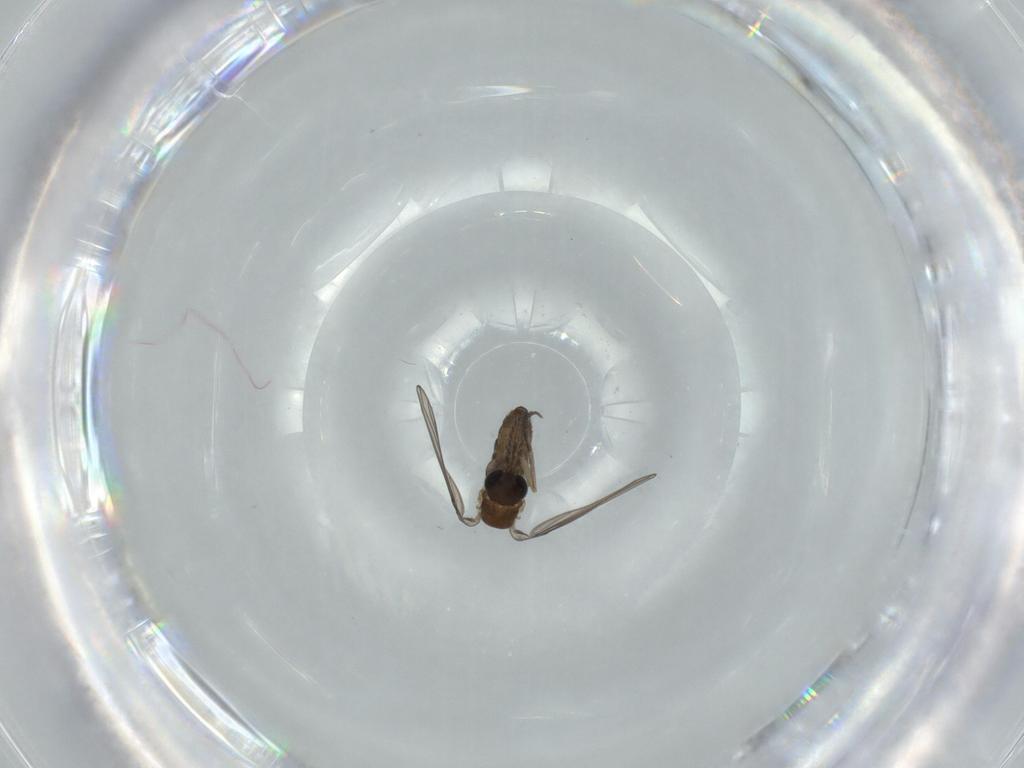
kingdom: Animalia
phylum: Arthropoda
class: Insecta
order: Diptera
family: Psychodidae
